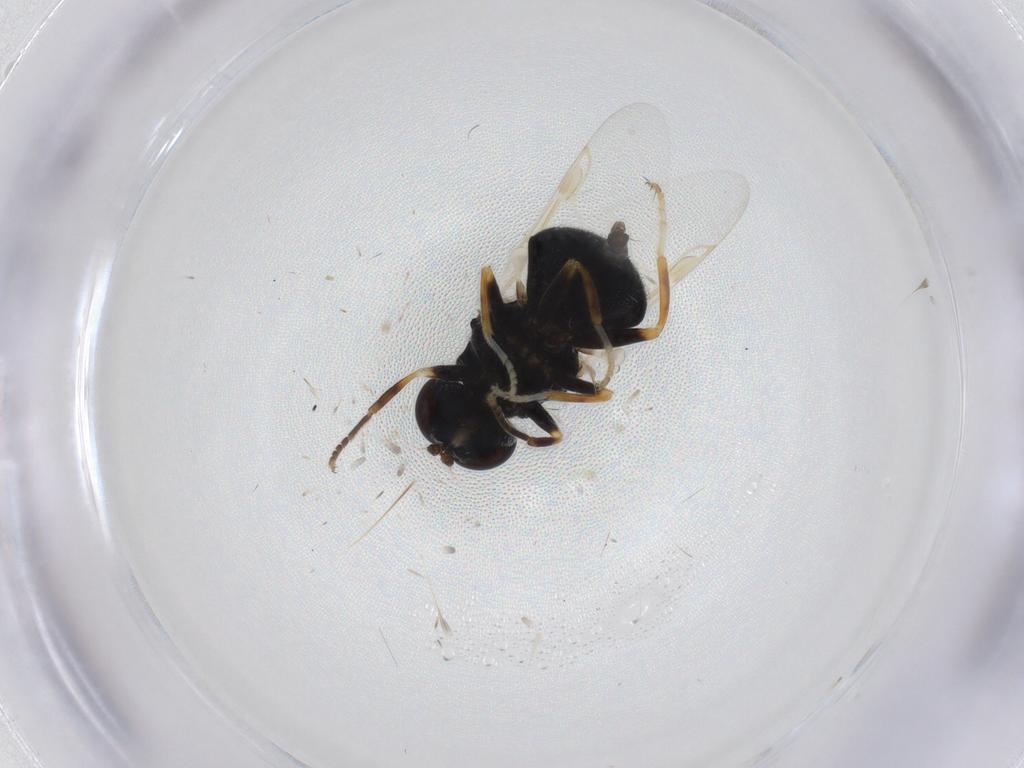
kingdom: Animalia
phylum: Arthropoda
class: Insecta
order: Diptera
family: Stratiomyidae
